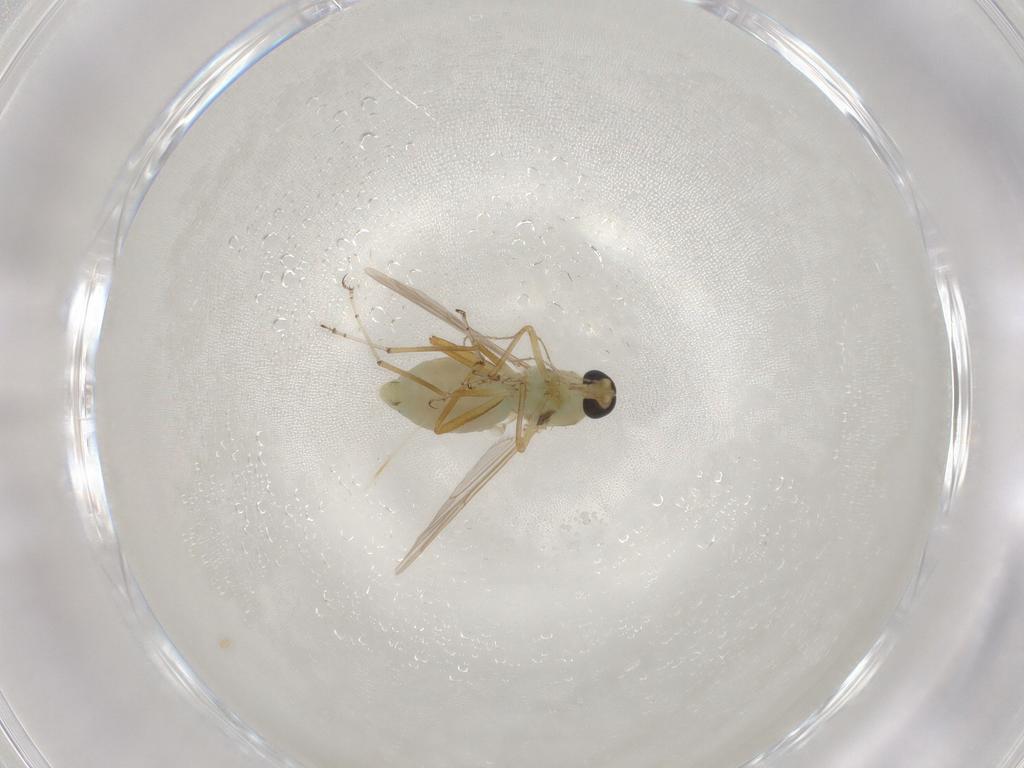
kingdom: Animalia
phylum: Arthropoda
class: Insecta
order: Diptera
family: Ceratopogonidae
